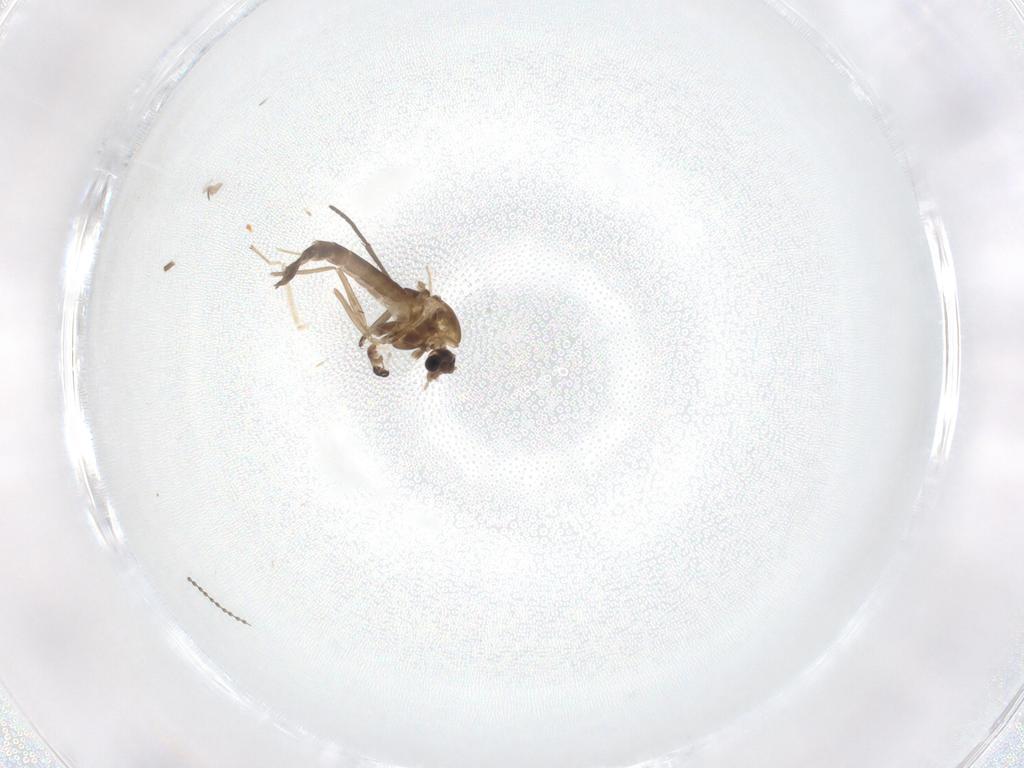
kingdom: Animalia
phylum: Arthropoda
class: Insecta
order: Diptera
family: Chironomidae
